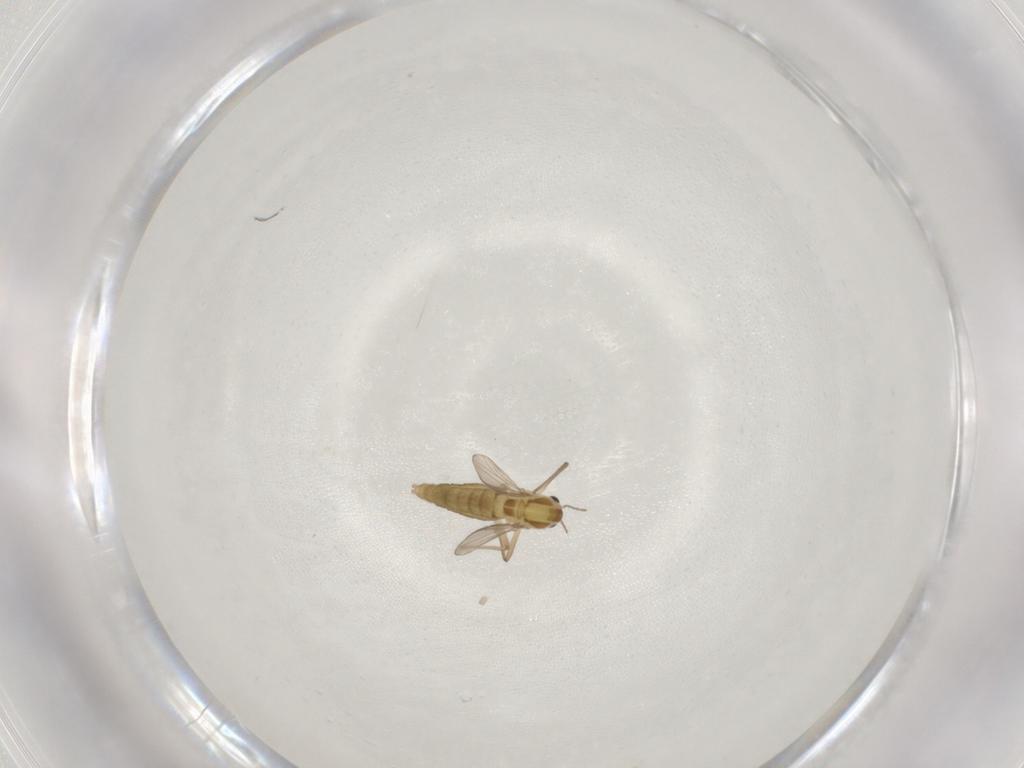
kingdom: Animalia
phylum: Arthropoda
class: Insecta
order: Diptera
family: Chironomidae
